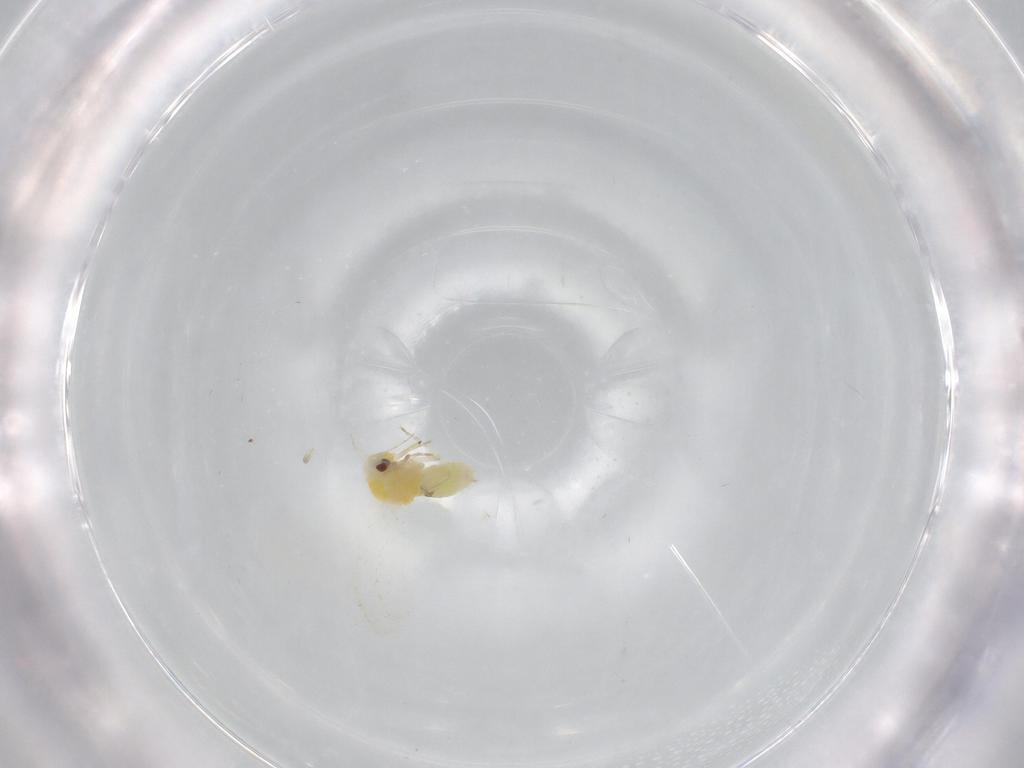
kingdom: Animalia
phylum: Arthropoda
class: Insecta
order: Hemiptera
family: Aleyrodidae
